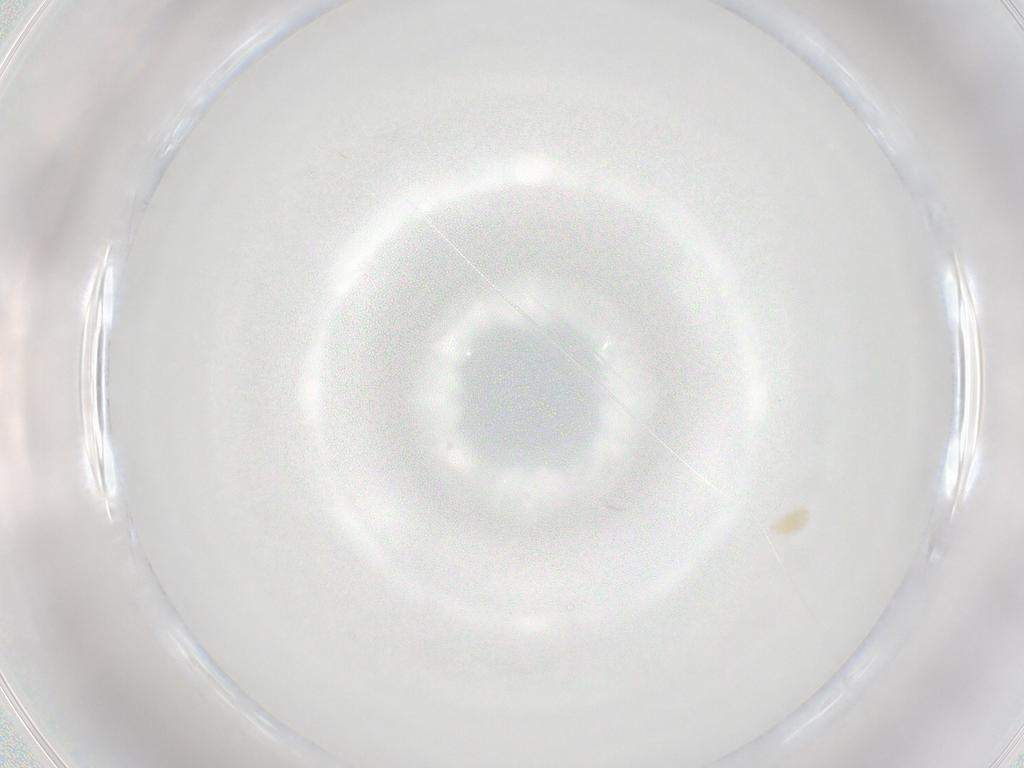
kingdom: Animalia
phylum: Arthropoda
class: Arachnida
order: Trombidiformes
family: Eupodidae
